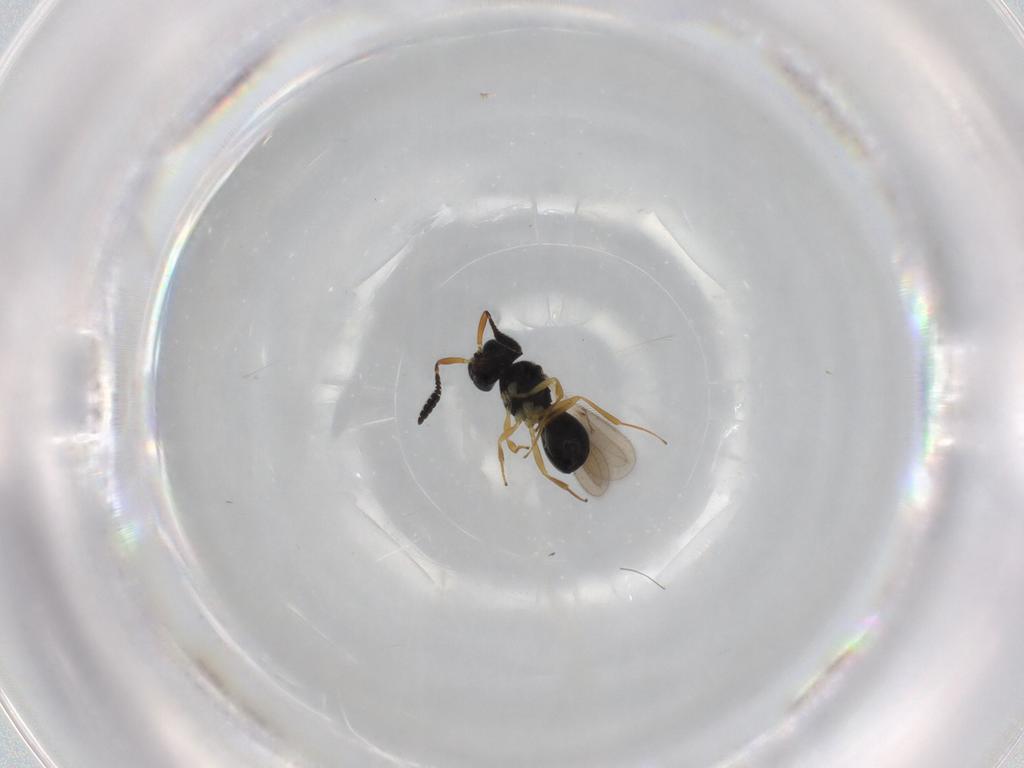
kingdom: Animalia
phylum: Arthropoda
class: Insecta
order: Hymenoptera
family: Scelionidae
